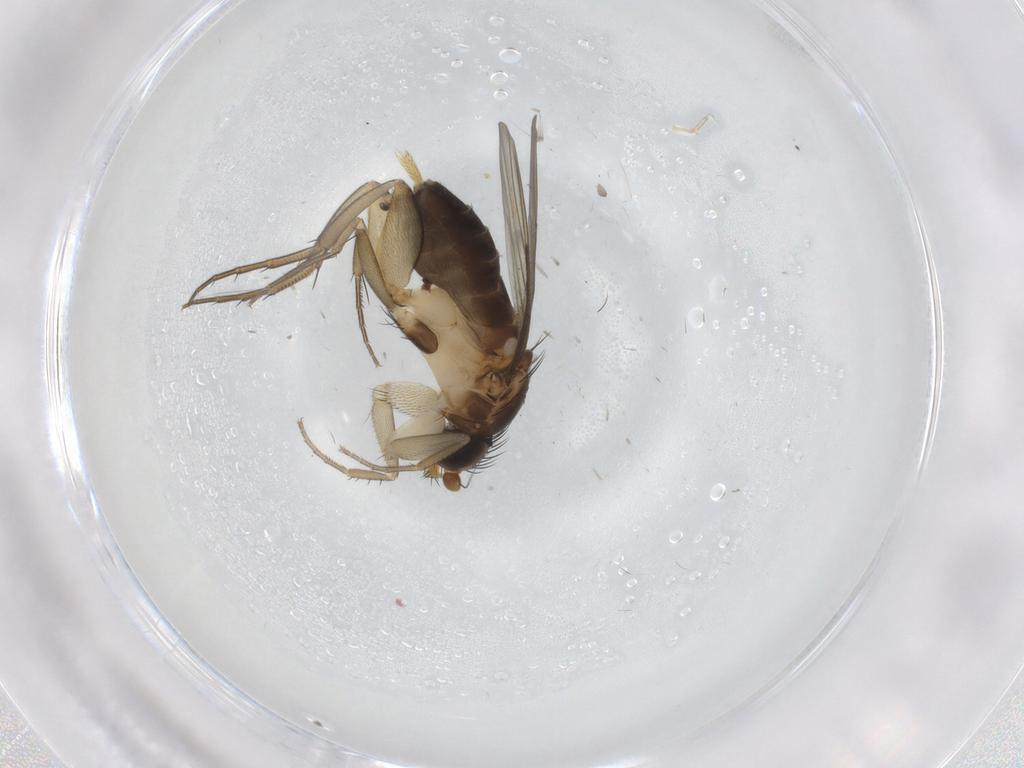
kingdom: Animalia
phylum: Arthropoda
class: Insecta
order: Diptera
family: Phoridae
